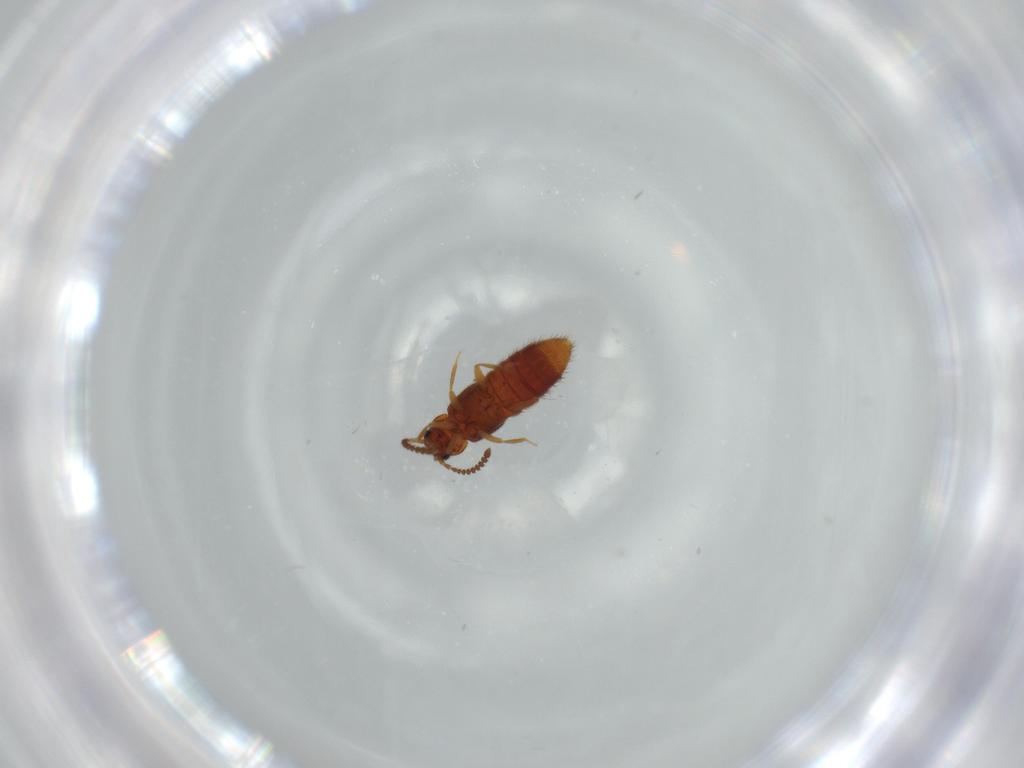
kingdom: Animalia
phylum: Arthropoda
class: Insecta
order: Coleoptera
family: Staphylinidae
